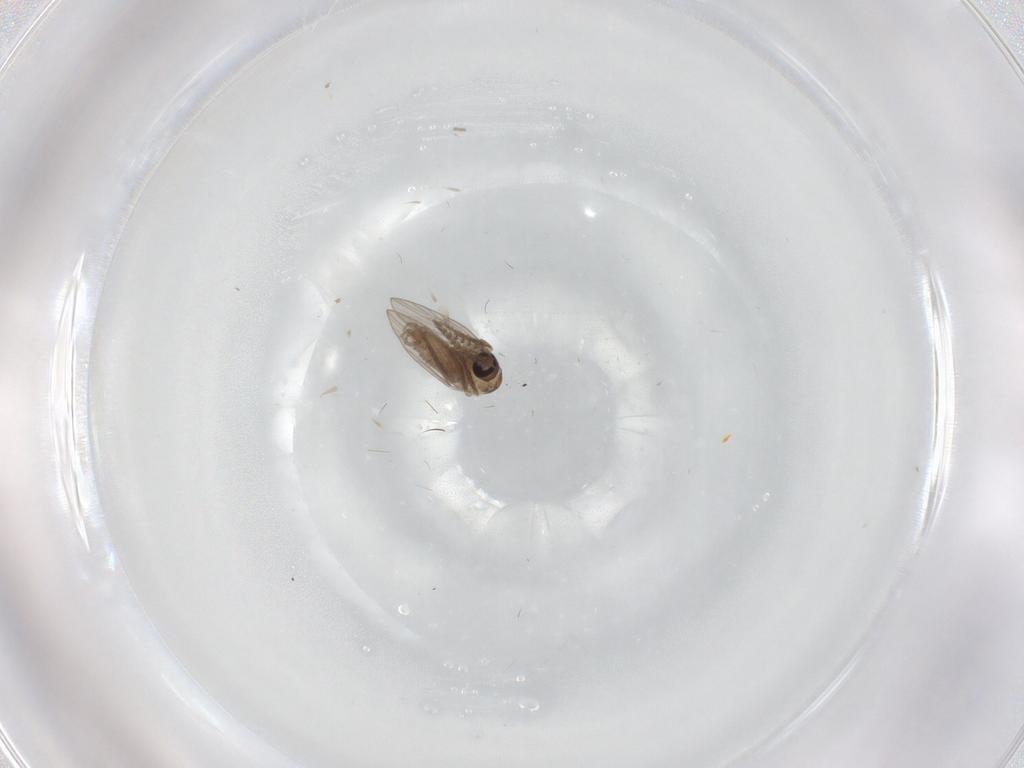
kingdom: Animalia
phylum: Arthropoda
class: Insecta
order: Diptera
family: Psychodidae
